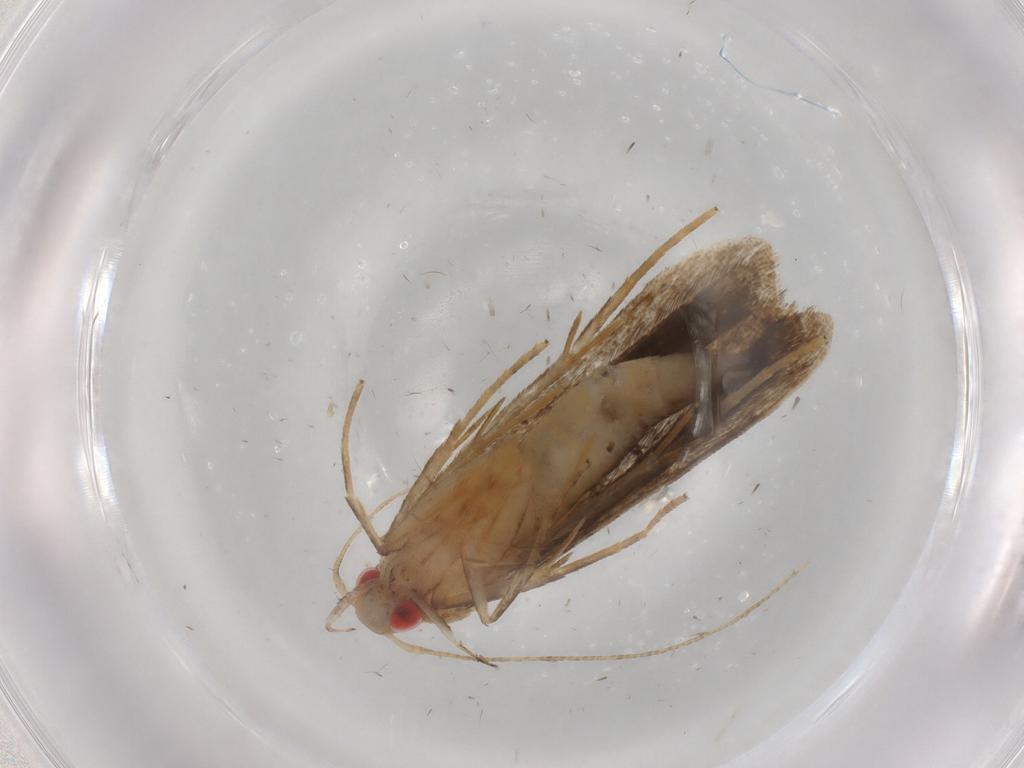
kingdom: Animalia
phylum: Arthropoda
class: Insecta
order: Lepidoptera
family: Gelechiidae
